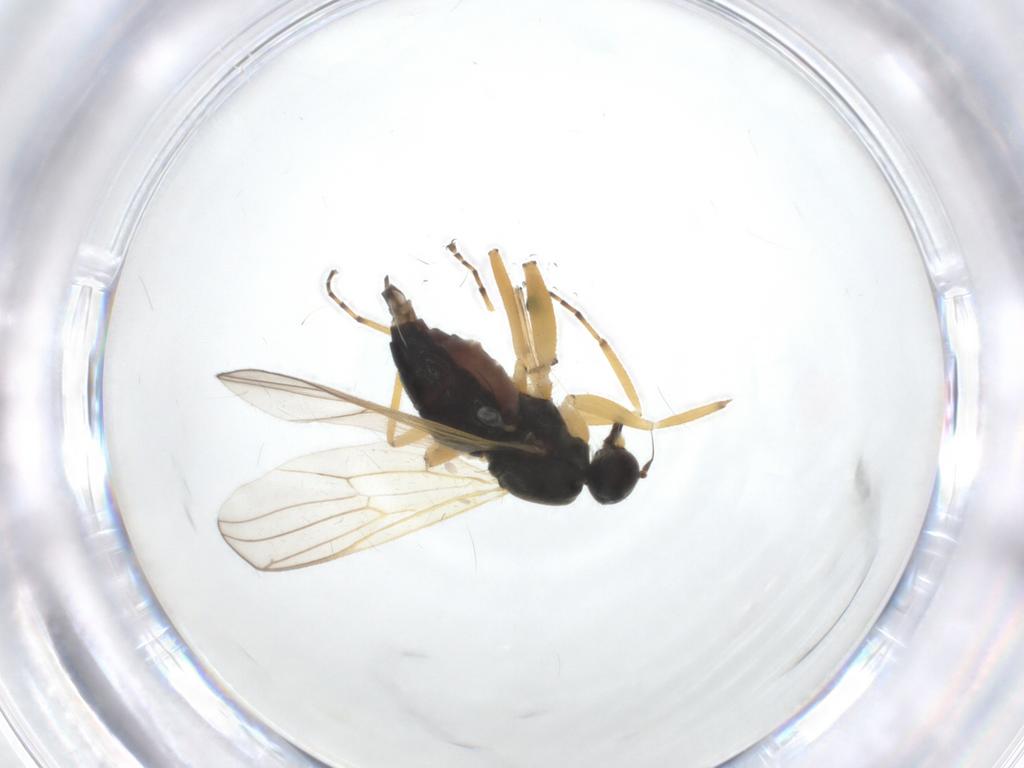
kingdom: Animalia
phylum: Arthropoda
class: Insecta
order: Diptera
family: Hybotidae
